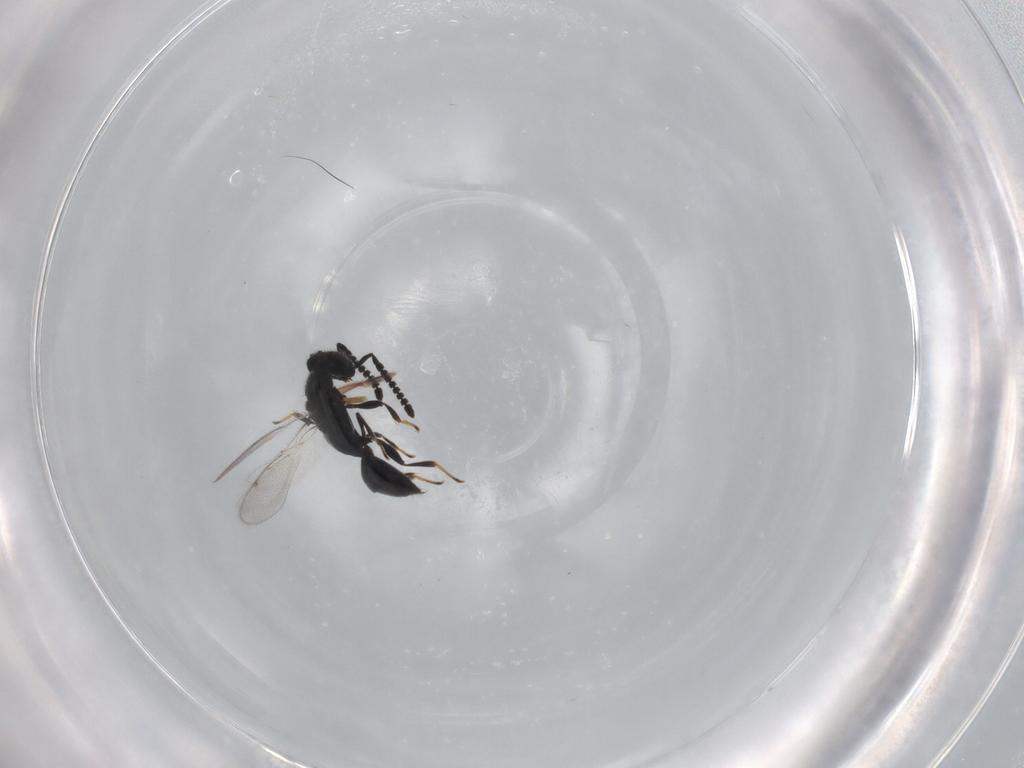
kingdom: Animalia
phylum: Arthropoda
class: Insecta
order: Hymenoptera
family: Spalangiidae
